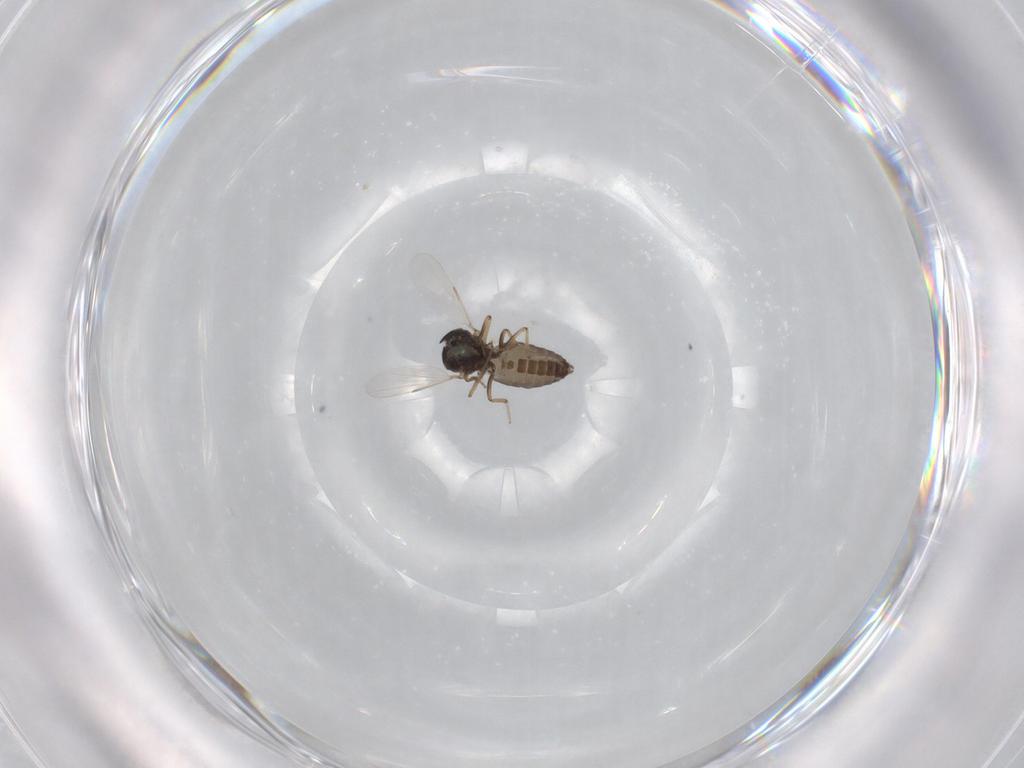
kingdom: Animalia
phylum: Arthropoda
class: Insecta
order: Diptera
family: Ceratopogonidae
